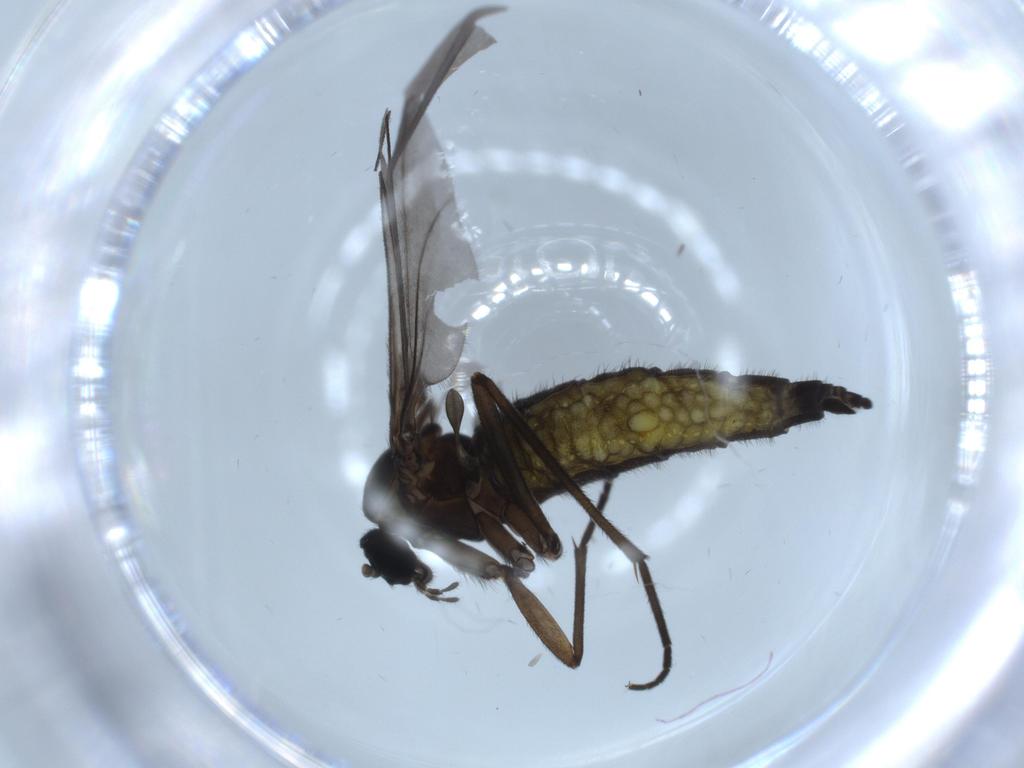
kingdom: Animalia
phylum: Arthropoda
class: Insecta
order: Diptera
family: Sciaridae
